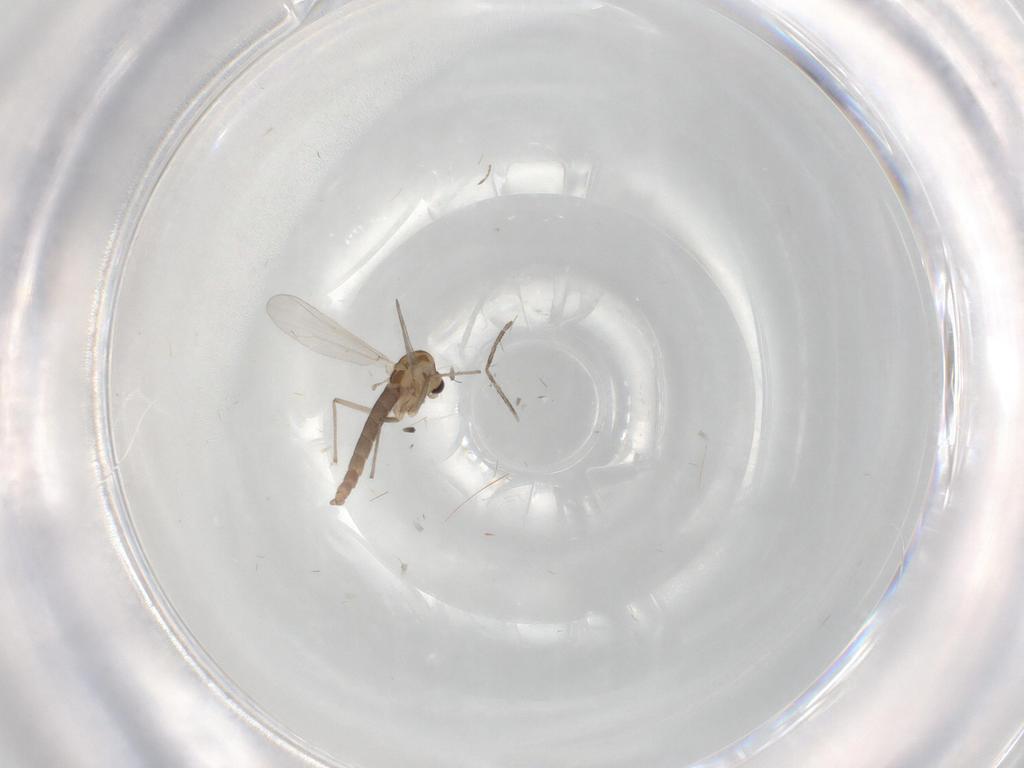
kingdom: Animalia
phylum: Arthropoda
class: Insecta
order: Diptera
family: Chironomidae
